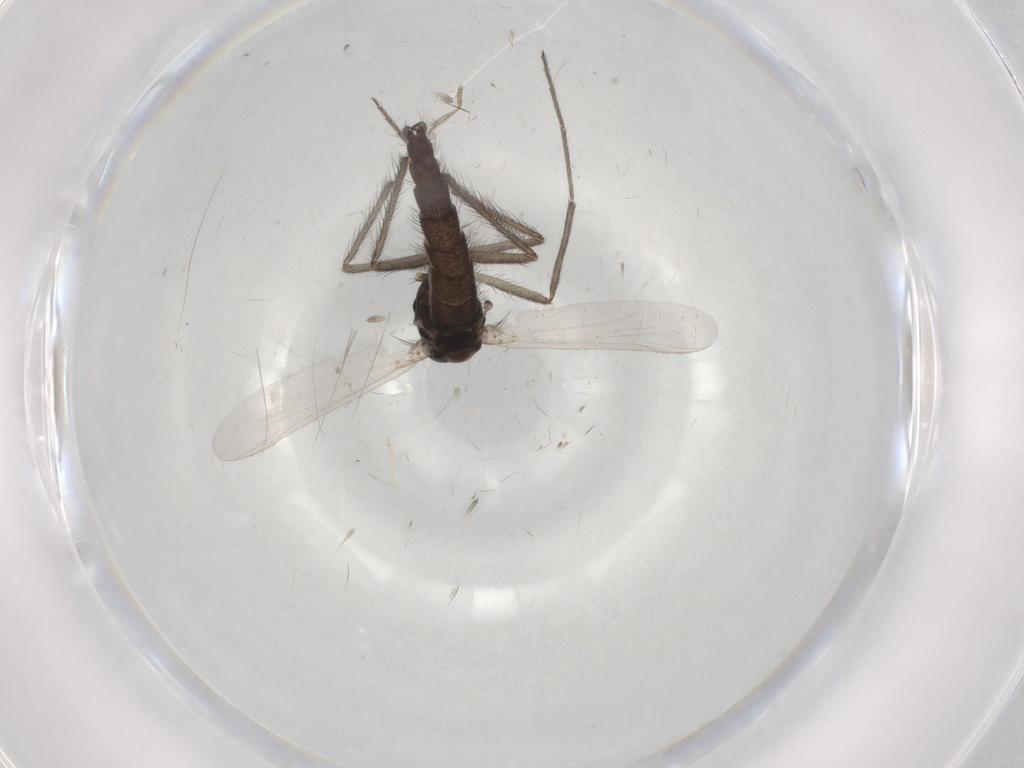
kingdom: Animalia
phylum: Arthropoda
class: Insecta
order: Diptera
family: Chironomidae
